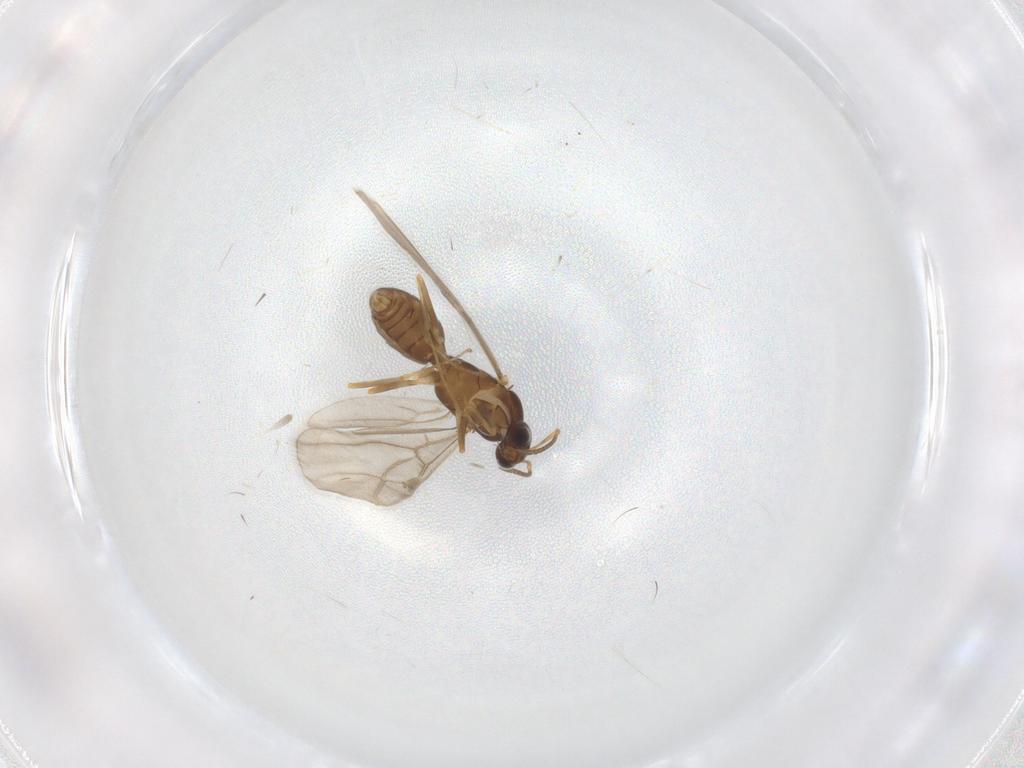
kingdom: Animalia
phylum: Arthropoda
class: Insecta
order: Hymenoptera
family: Formicidae
